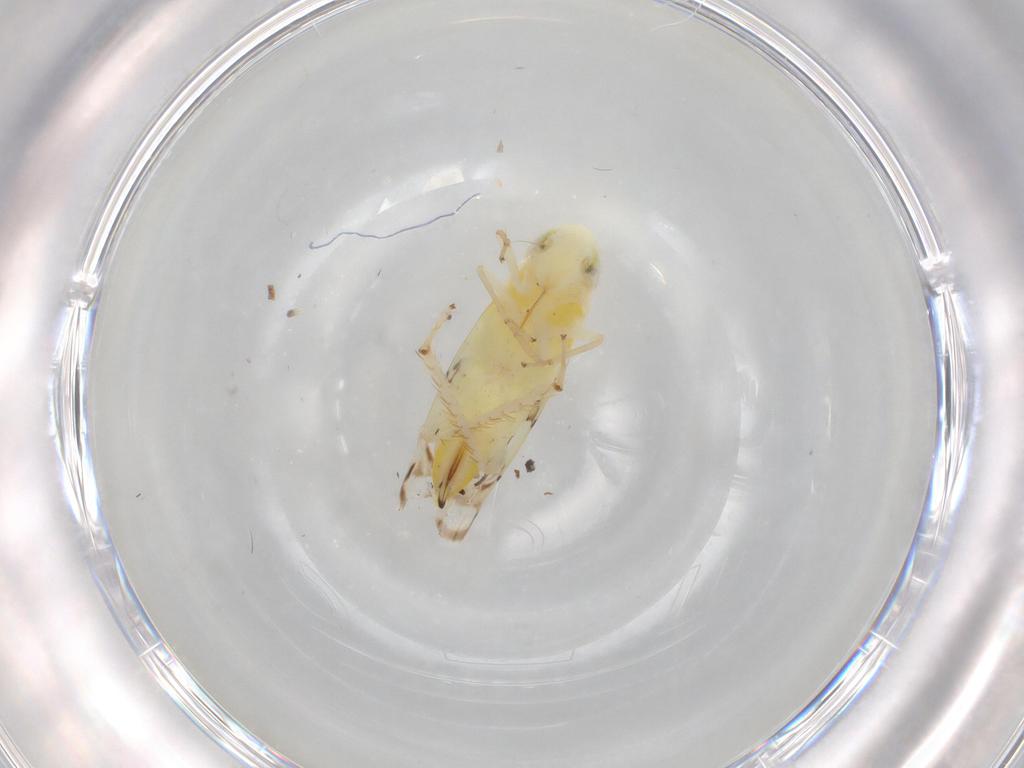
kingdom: Animalia
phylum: Arthropoda
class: Insecta
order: Hemiptera
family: Cicadellidae
